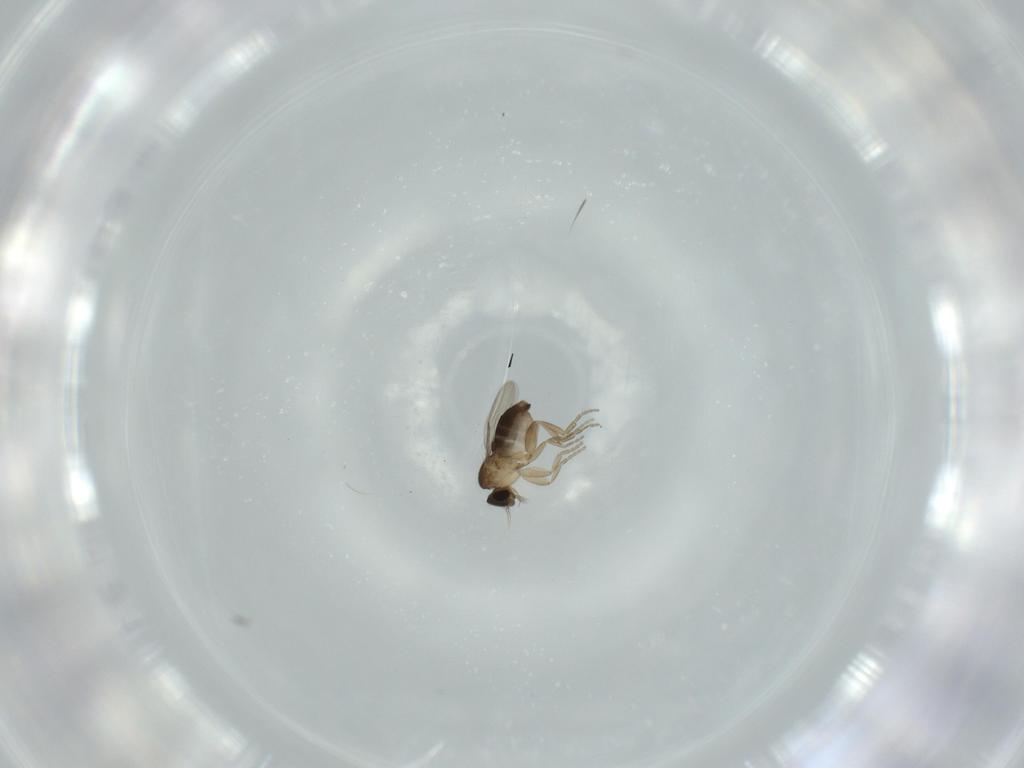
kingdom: Animalia
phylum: Arthropoda
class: Insecta
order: Diptera
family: Phoridae
